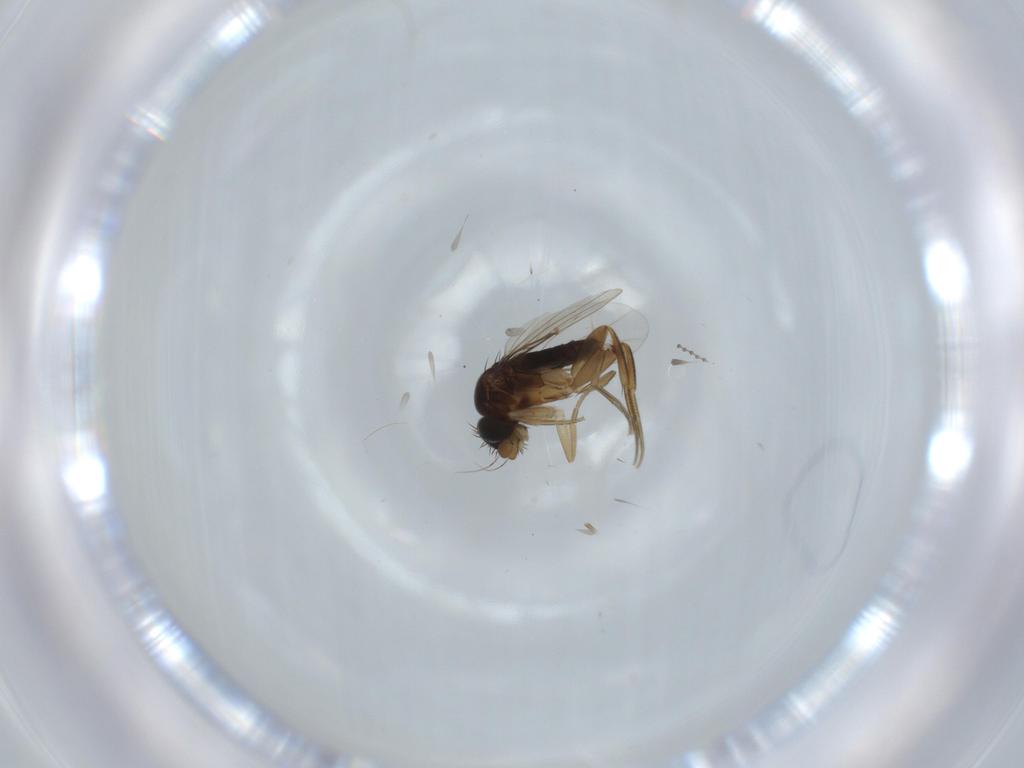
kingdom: Animalia
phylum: Arthropoda
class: Insecta
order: Diptera
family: Phoridae
